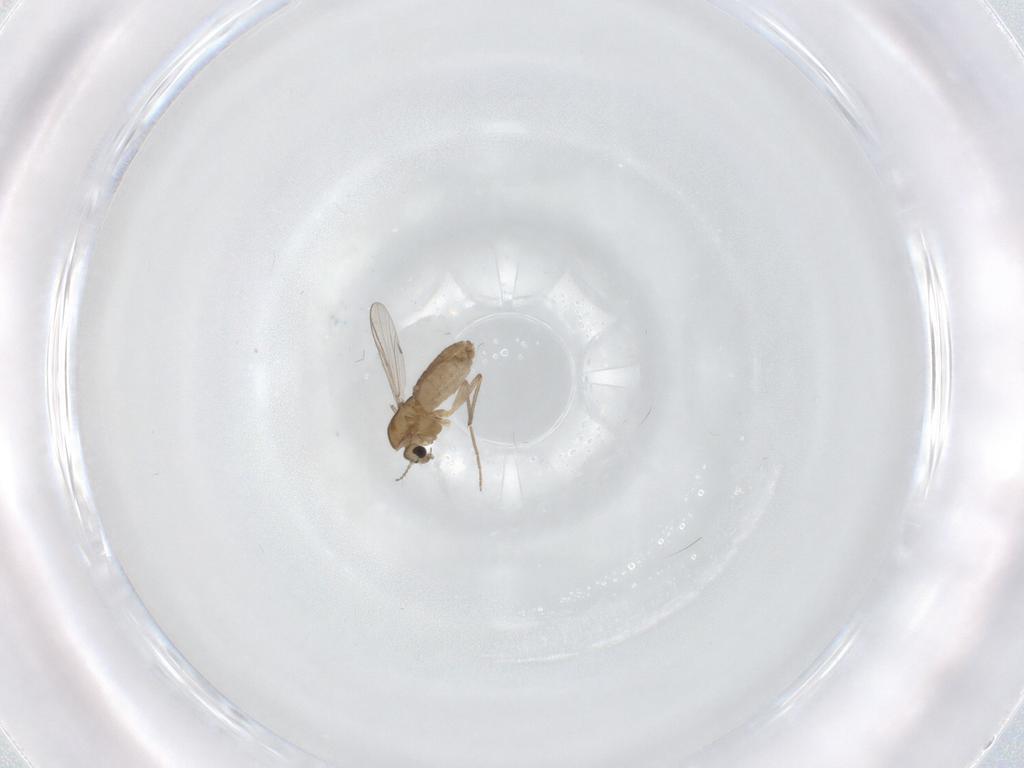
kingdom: Animalia
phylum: Arthropoda
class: Insecta
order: Diptera
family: Chironomidae
